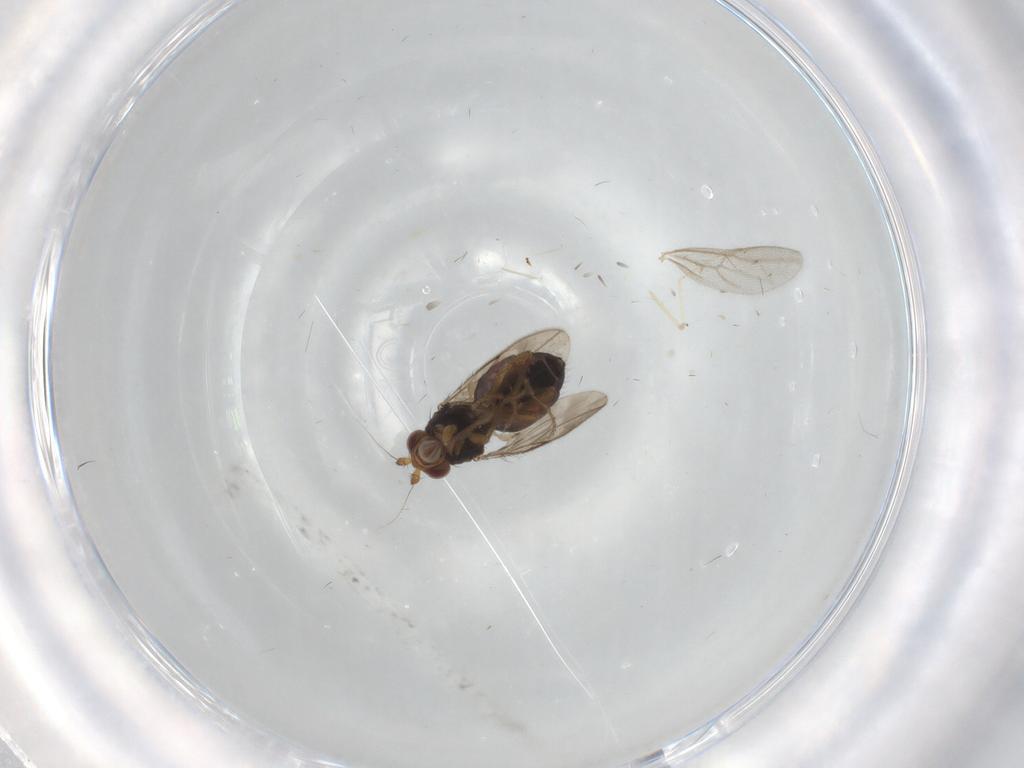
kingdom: Animalia
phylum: Arthropoda
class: Insecta
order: Diptera
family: Sphaeroceridae
